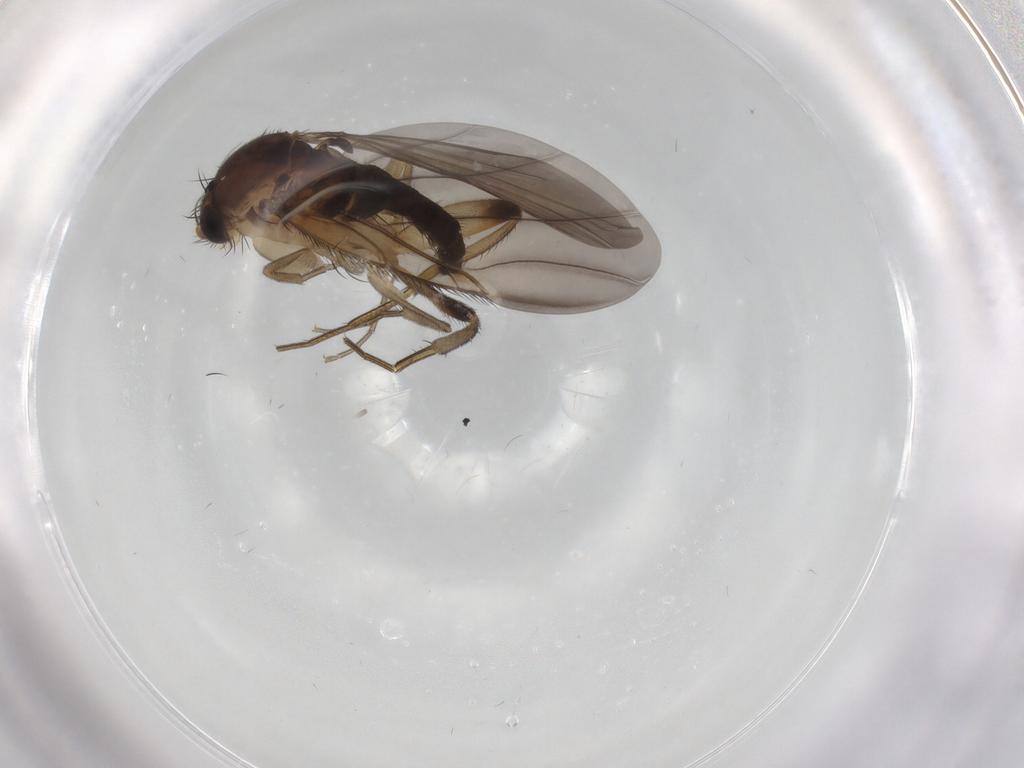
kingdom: Animalia
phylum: Arthropoda
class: Insecta
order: Diptera
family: Phoridae
